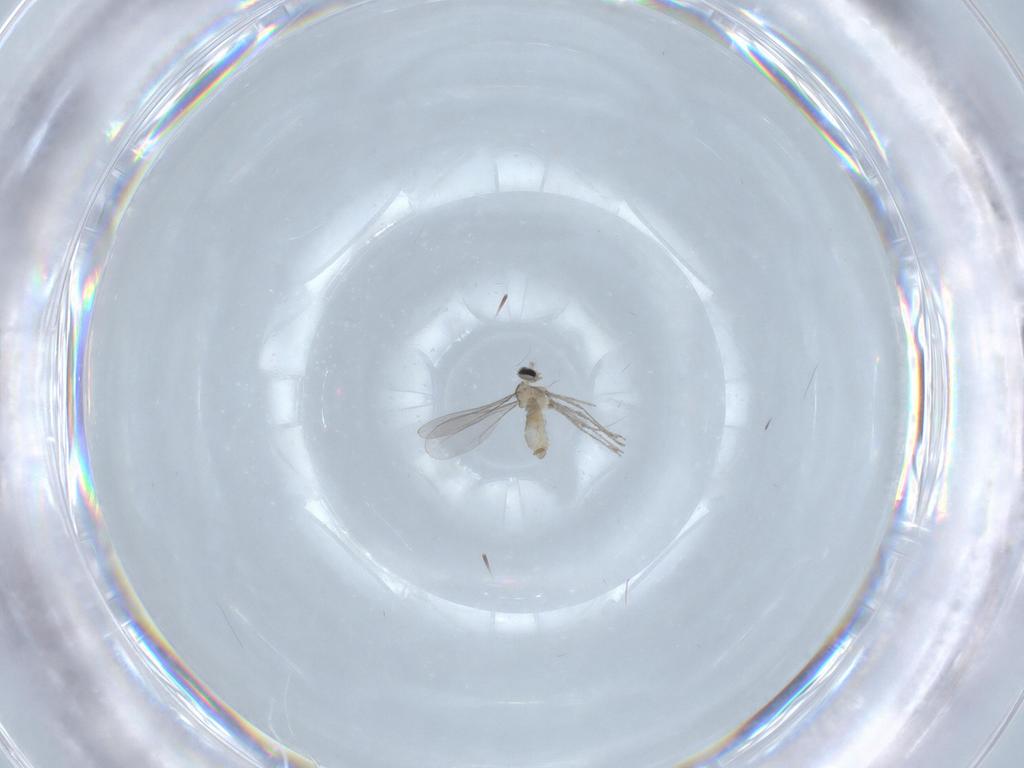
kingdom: Animalia
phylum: Arthropoda
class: Insecta
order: Diptera
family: Cecidomyiidae
